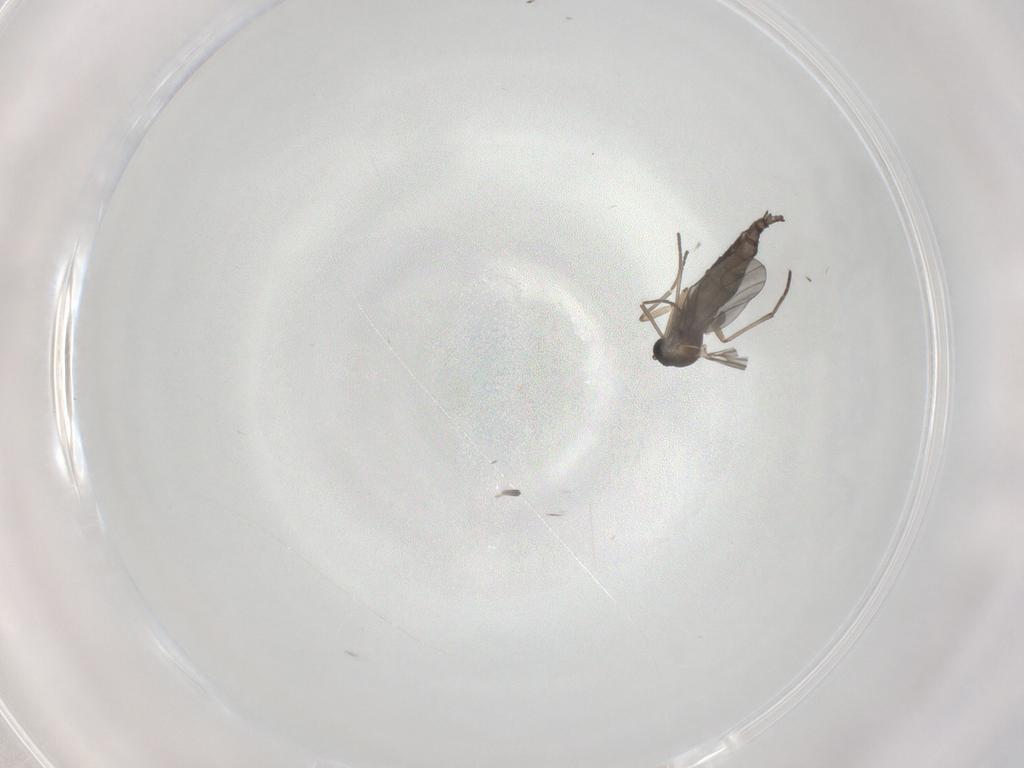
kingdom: Animalia
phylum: Arthropoda
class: Insecta
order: Diptera
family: Sciaridae
